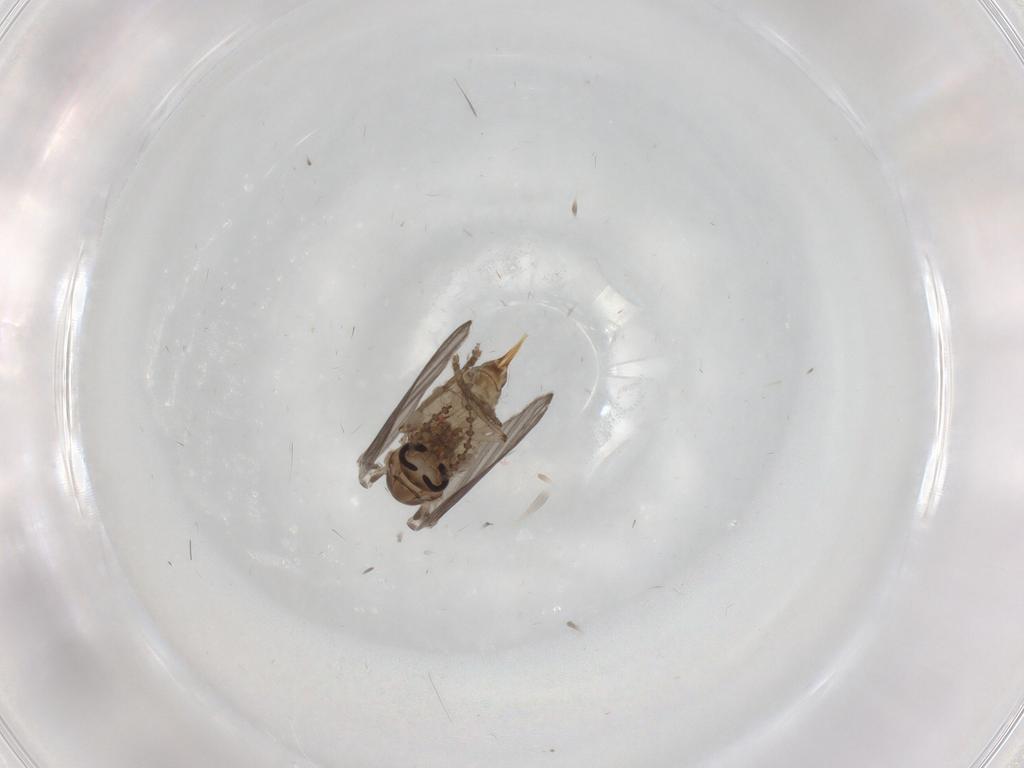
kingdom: Animalia
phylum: Arthropoda
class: Insecta
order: Diptera
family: Psychodidae
